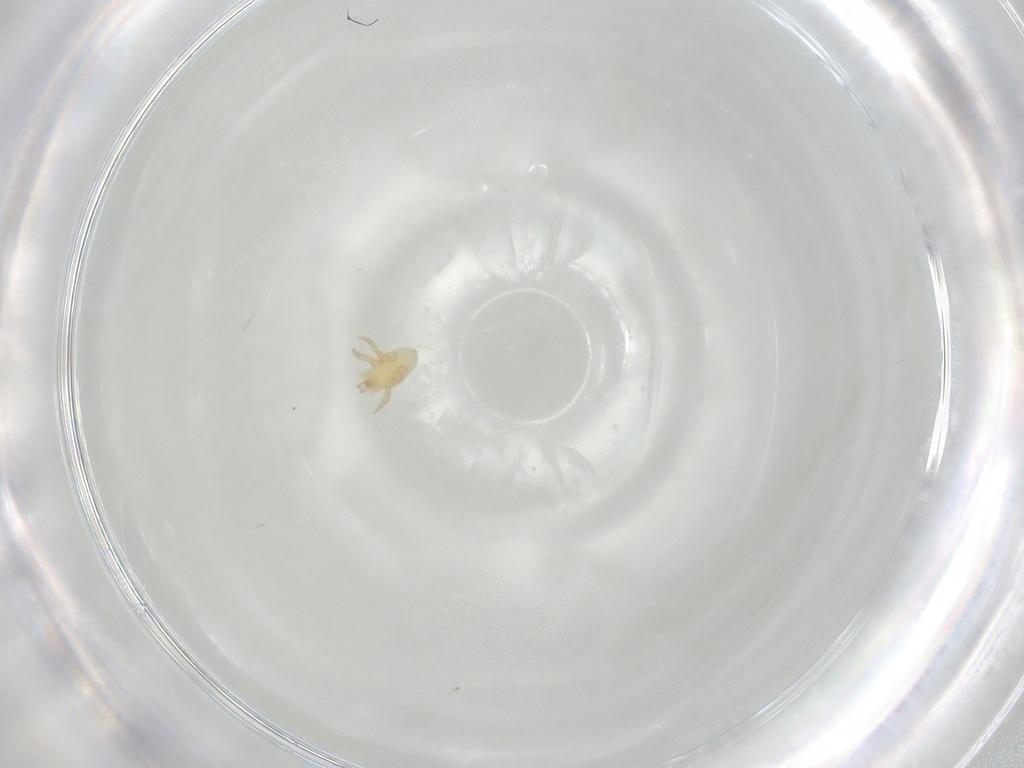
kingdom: Animalia
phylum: Arthropoda
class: Arachnida
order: Mesostigmata
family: Parasitidae
